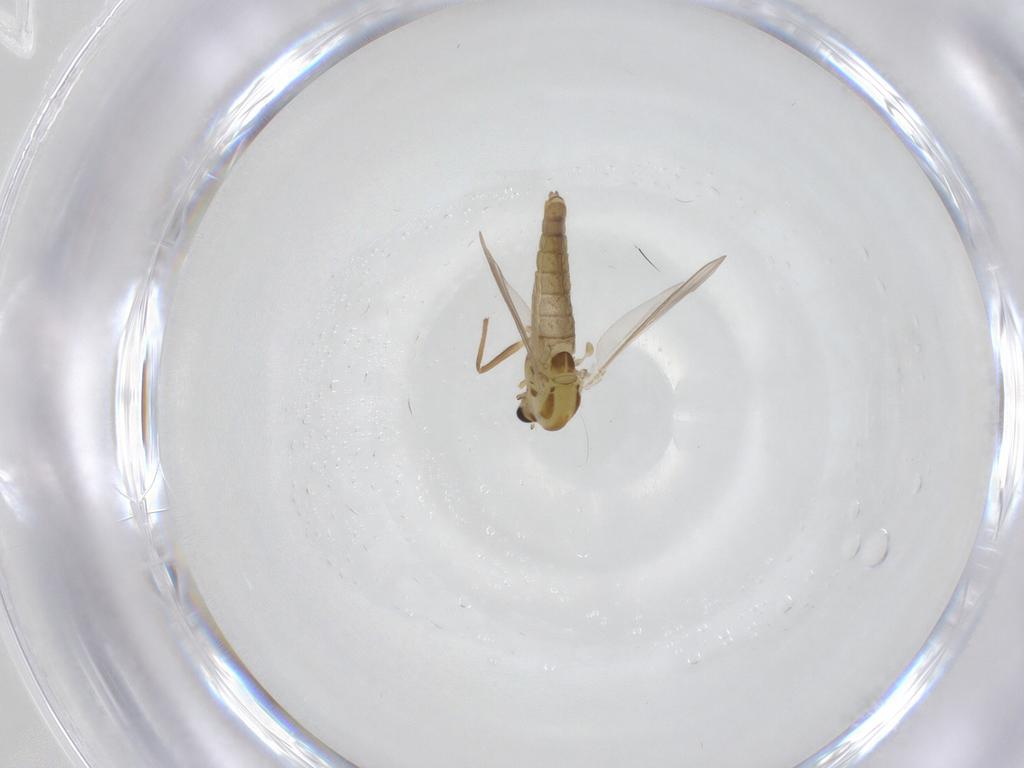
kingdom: Animalia
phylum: Arthropoda
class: Insecta
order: Diptera
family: Chironomidae
